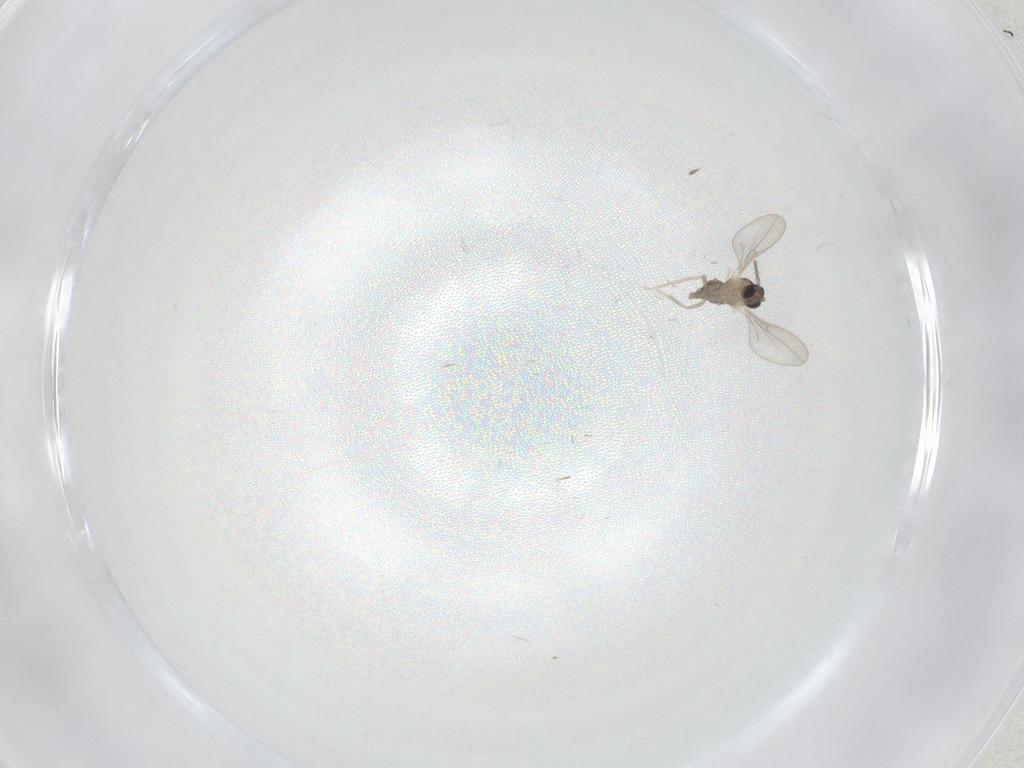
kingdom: Animalia
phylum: Arthropoda
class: Insecta
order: Diptera
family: Cecidomyiidae
